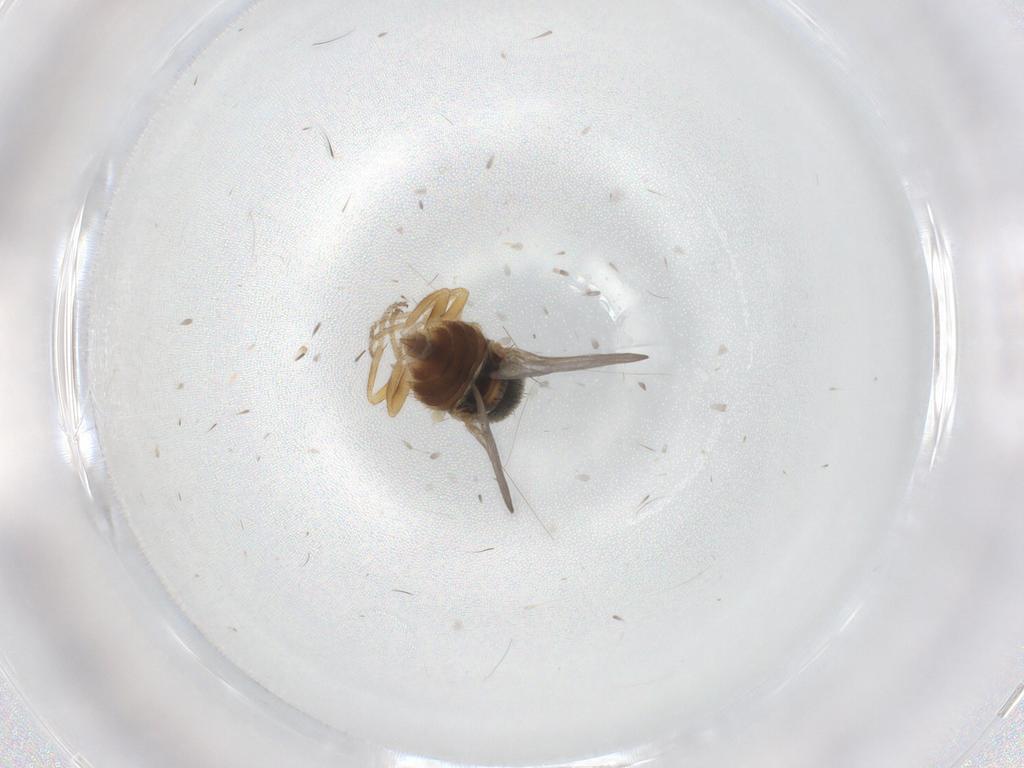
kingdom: Animalia
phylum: Arthropoda
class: Insecta
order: Diptera
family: Chloropidae
